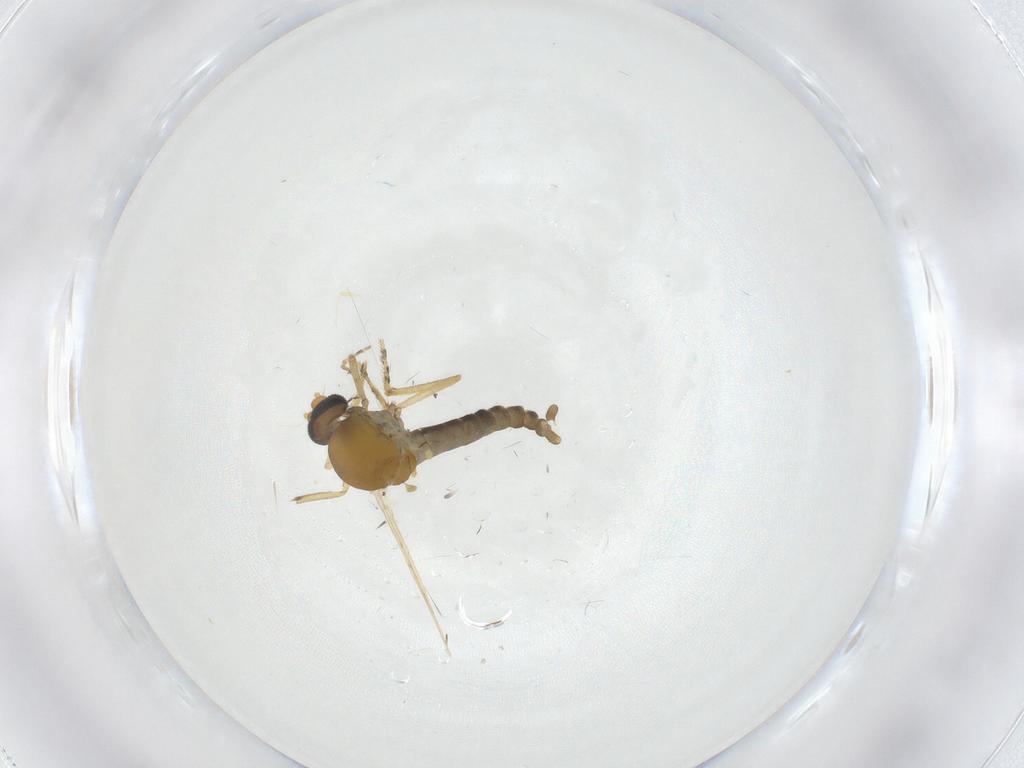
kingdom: Animalia
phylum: Arthropoda
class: Insecta
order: Diptera
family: Ceratopogonidae
